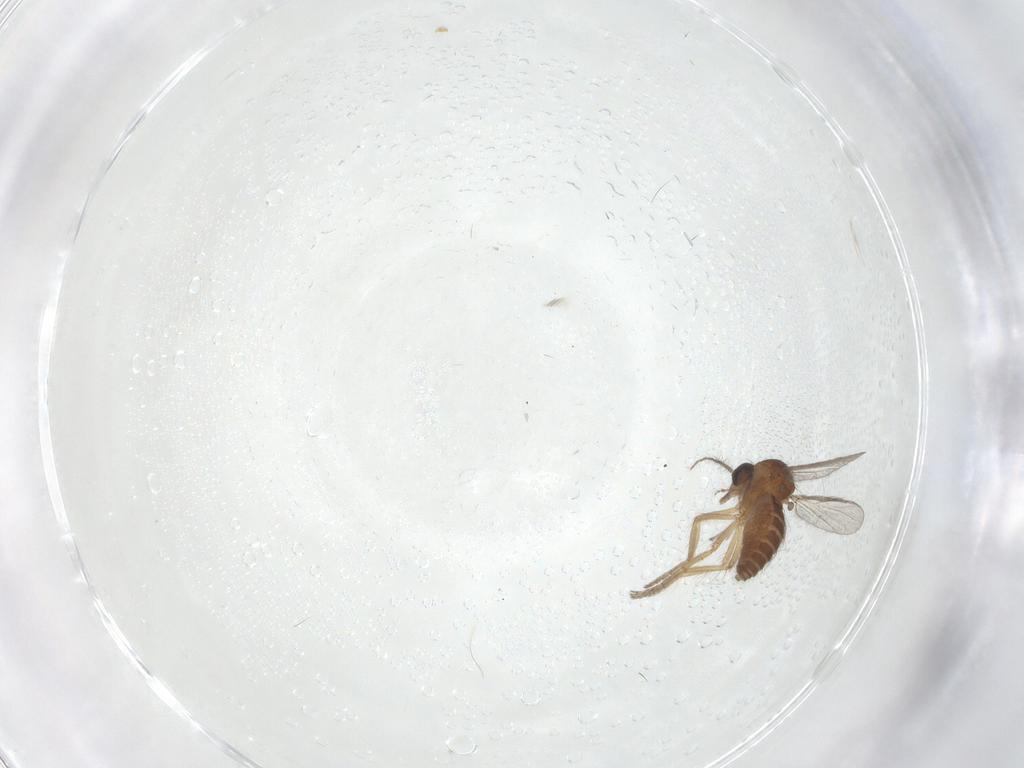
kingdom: Animalia
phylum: Arthropoda
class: Insecta
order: Diptera
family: Ceratopogonidae
